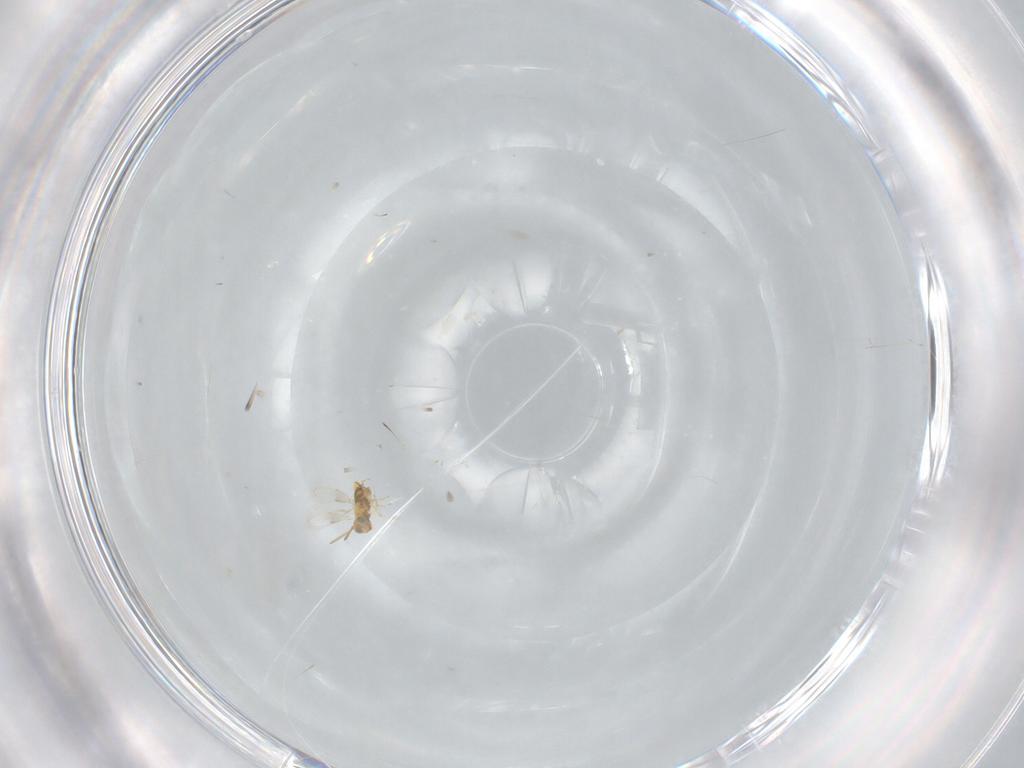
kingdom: Animalia
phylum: Arthropoda
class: Insecta
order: Hymenoptera
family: Aphelinidae
